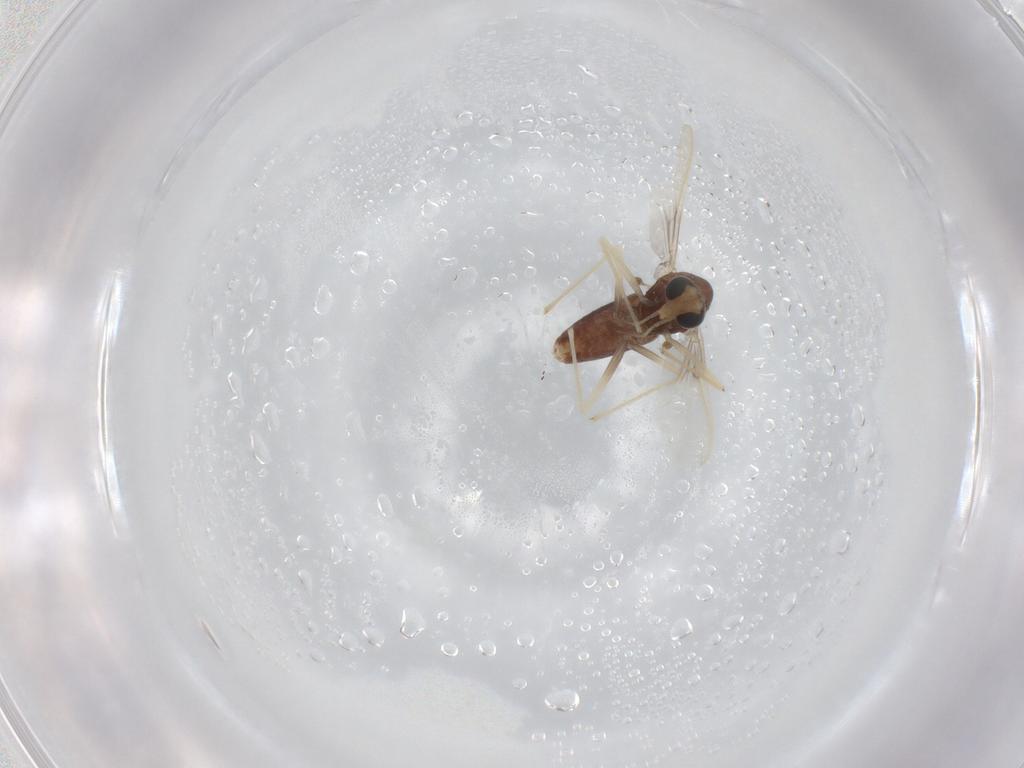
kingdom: Animalia
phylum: Arthropoda
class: Insecta
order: Diptera
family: Chironomidae
